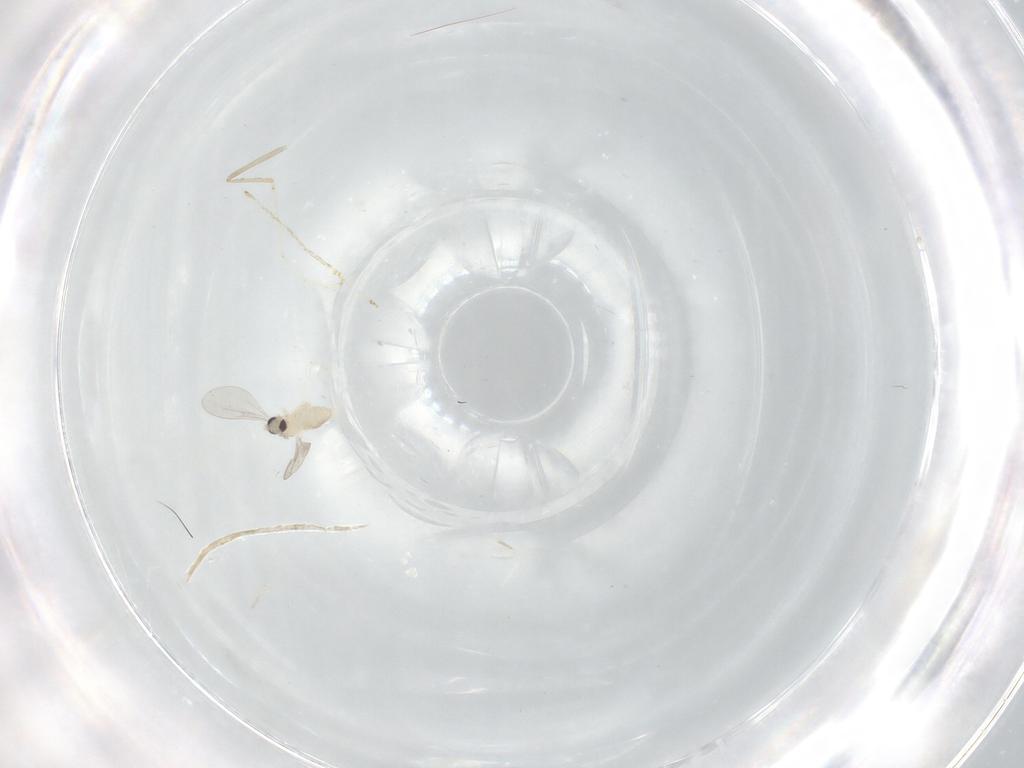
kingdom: Animalia
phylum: Arthropoda
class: Insecta
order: Diptera
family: Cecidomyiidae
